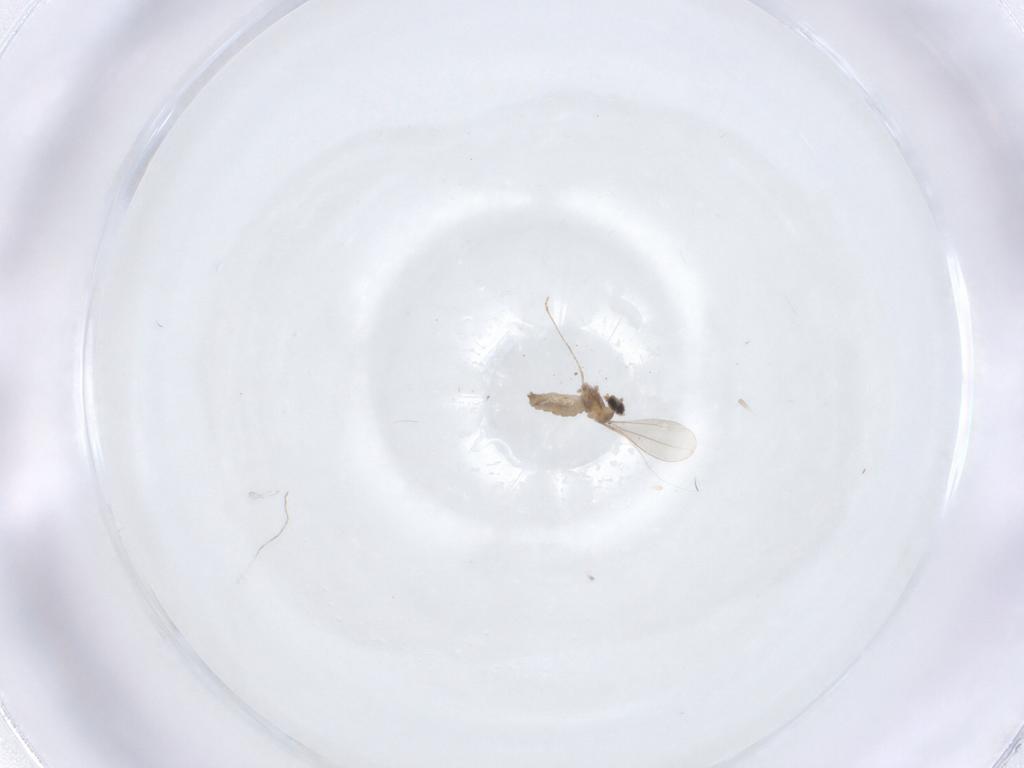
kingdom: Animalia
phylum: Arthropoda
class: Insecta
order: Diptera
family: Cecidomyiidae
